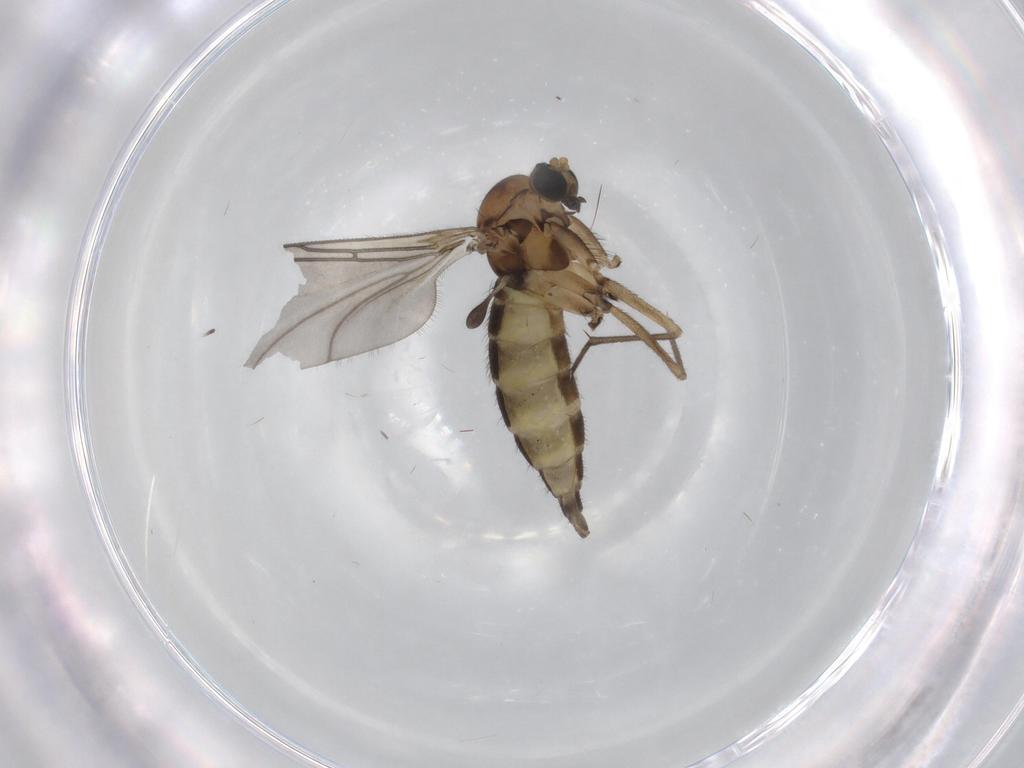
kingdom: Animalia
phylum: Arthropoda
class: Insecta
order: Diptera
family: Sciaridae
